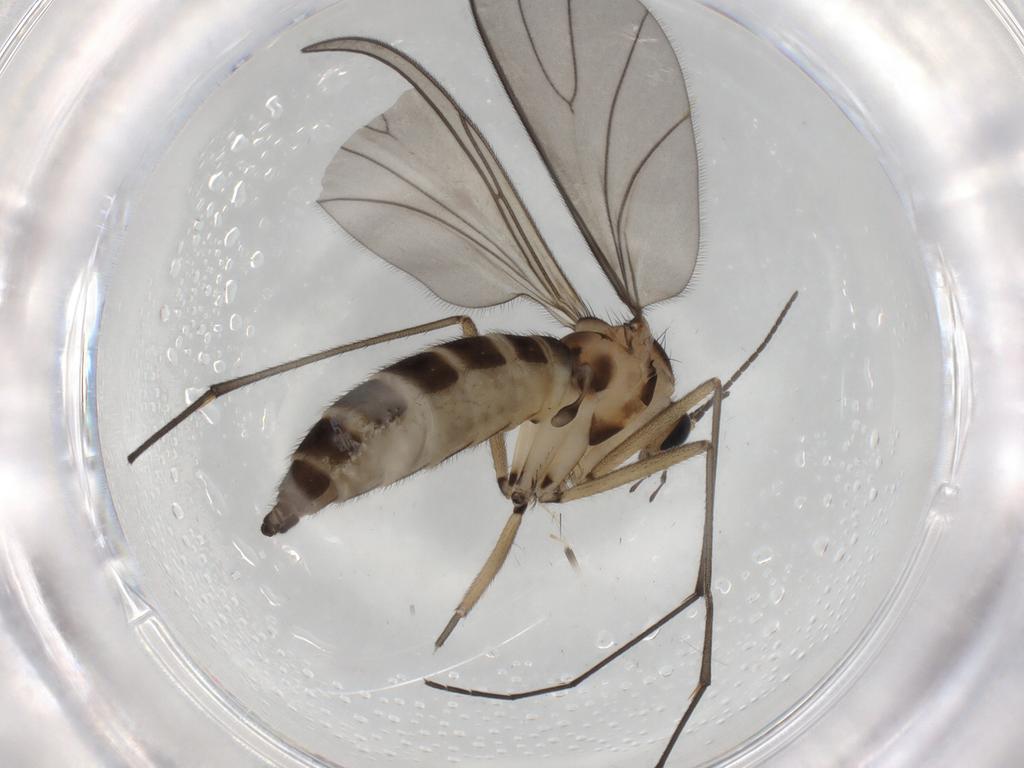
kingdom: Animalia
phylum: Arthropoda
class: Insecta
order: Diptera
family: Sciaridae
